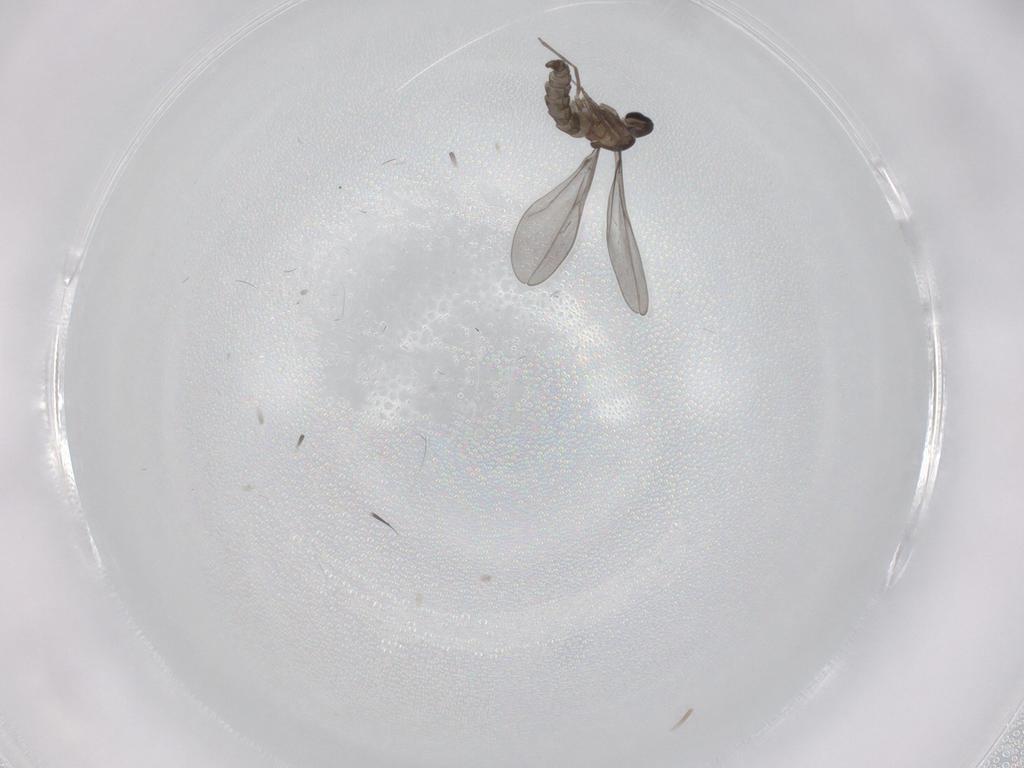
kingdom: Animalia
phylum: Arthropoda
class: Insecta
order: Diptera
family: Cecidomyiidae
